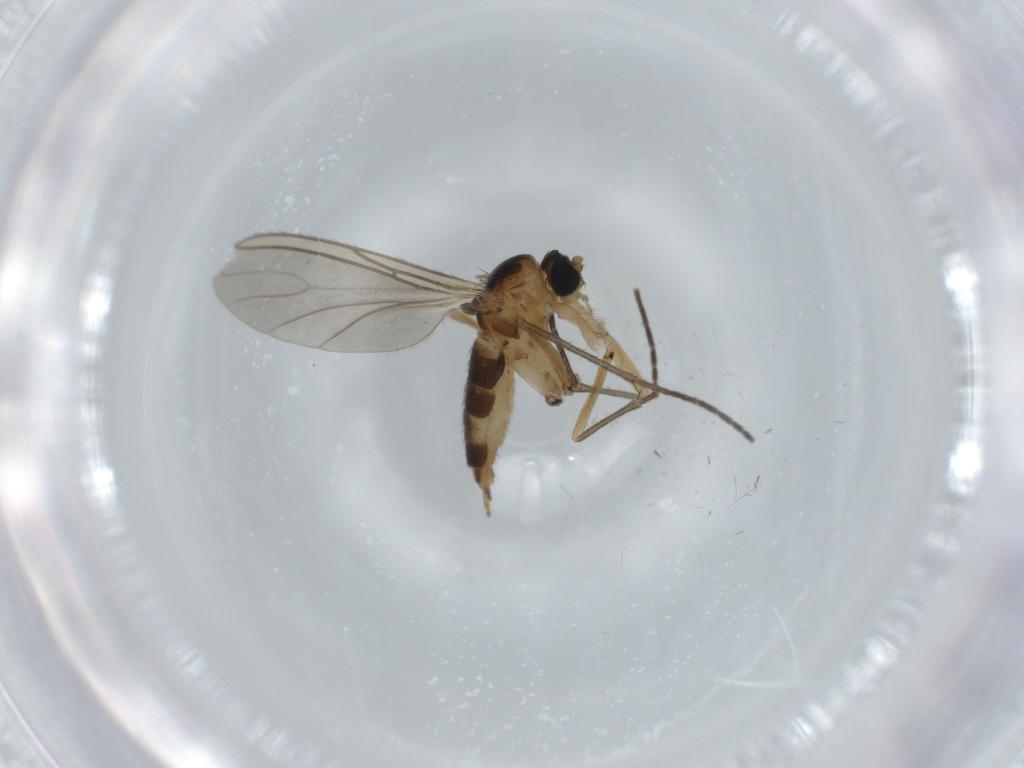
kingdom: Animalia
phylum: Arthropoda
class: Insecta
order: Diptera
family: Sciaridae
